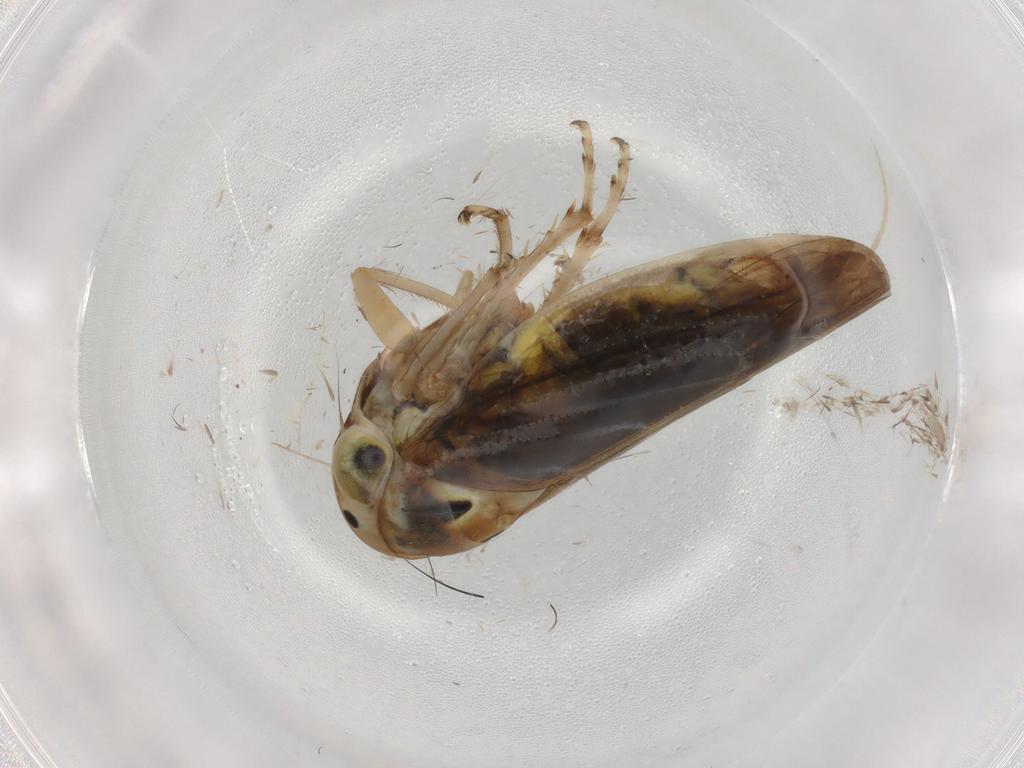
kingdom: Animalia
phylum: Arthropoda
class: Insecta
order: Hemiptera
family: Cicadellidae
